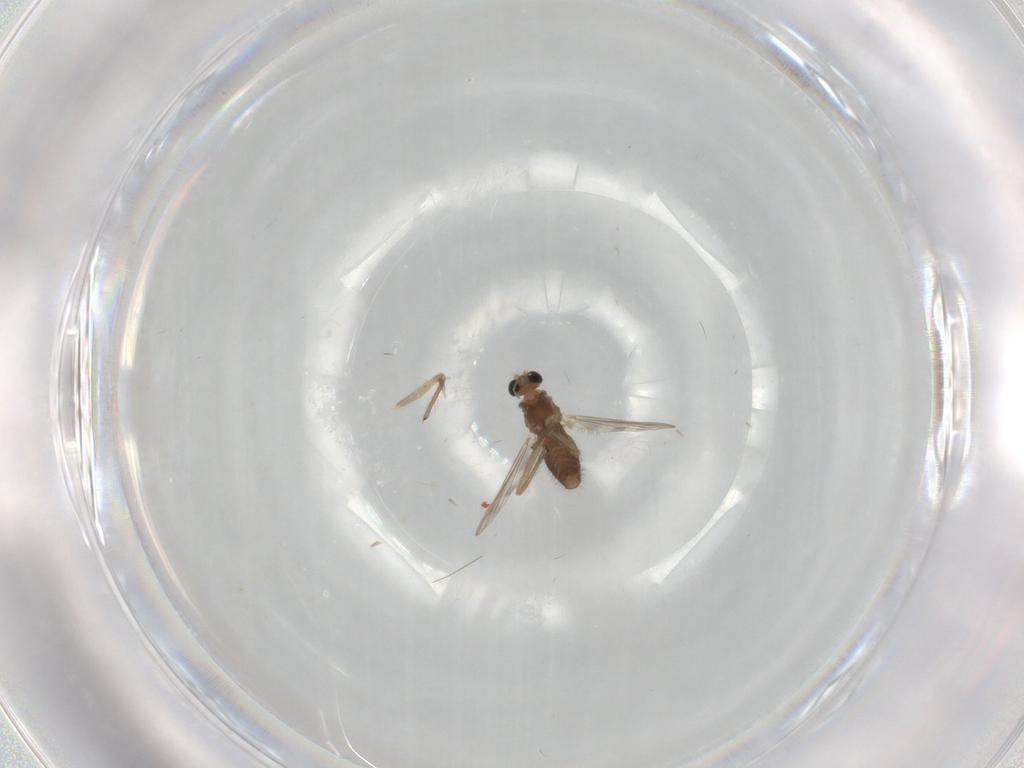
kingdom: Animalia
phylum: Arthropoda
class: Insecta
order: Diptera
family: Chironomidae
